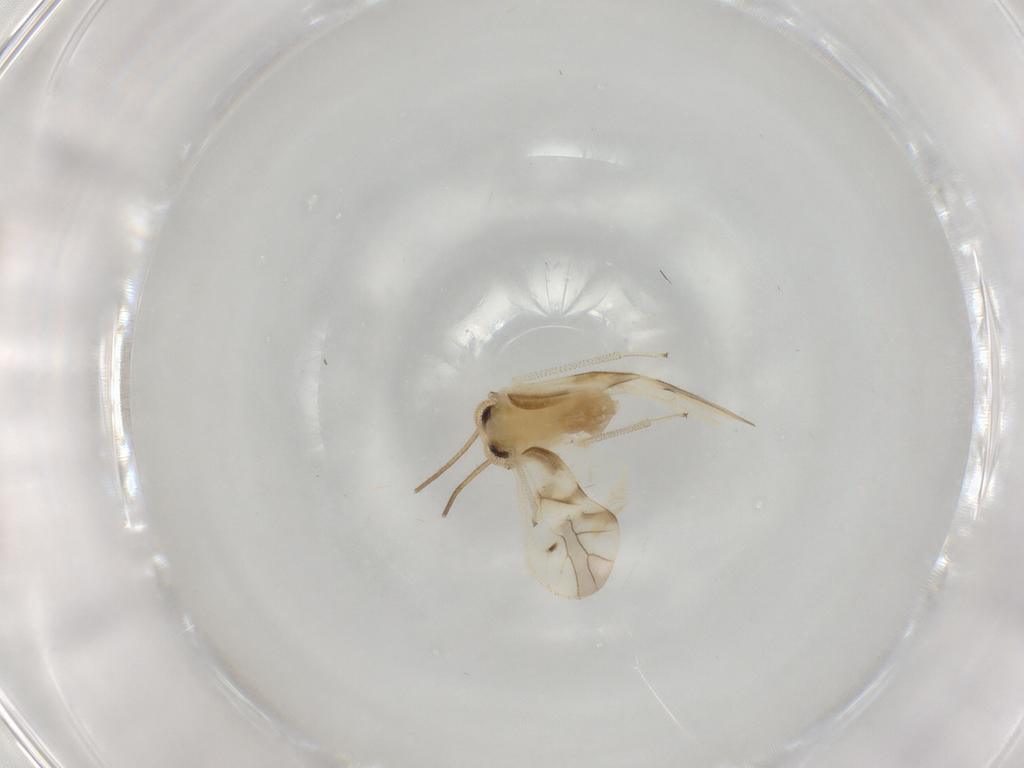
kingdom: Animalia
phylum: Arthropoda
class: Insecta
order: Psocodea
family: Caeciliusidae
